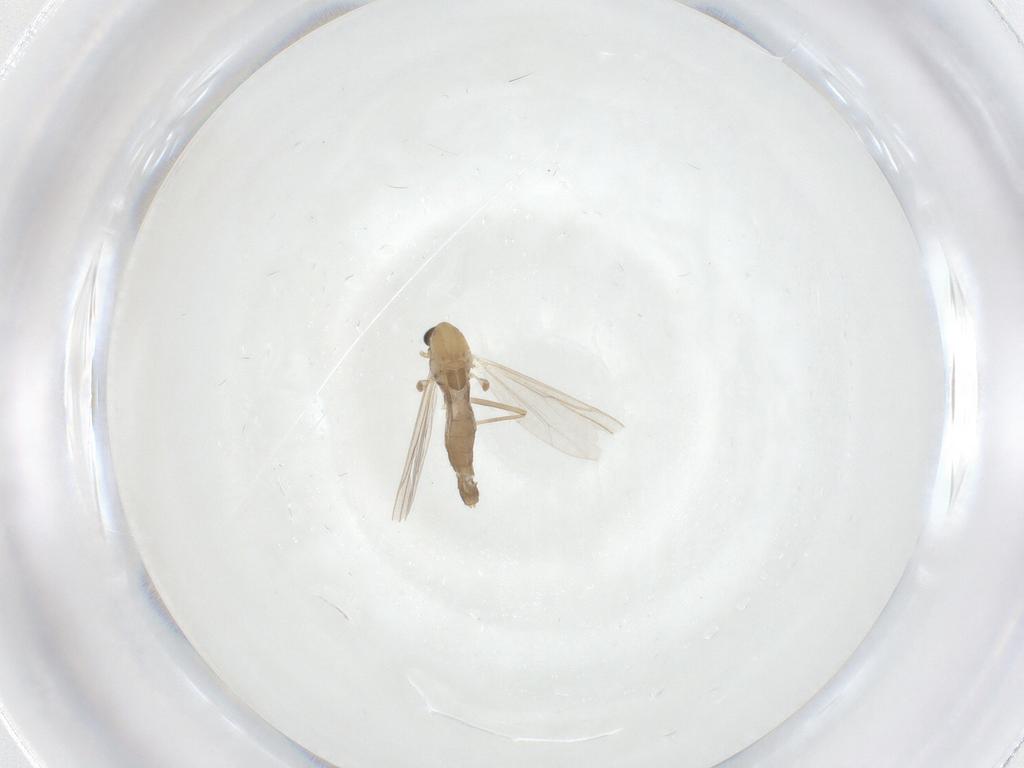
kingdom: Animalia
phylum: Arthropoda
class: Insecta
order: Diptera
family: Chironomidae
